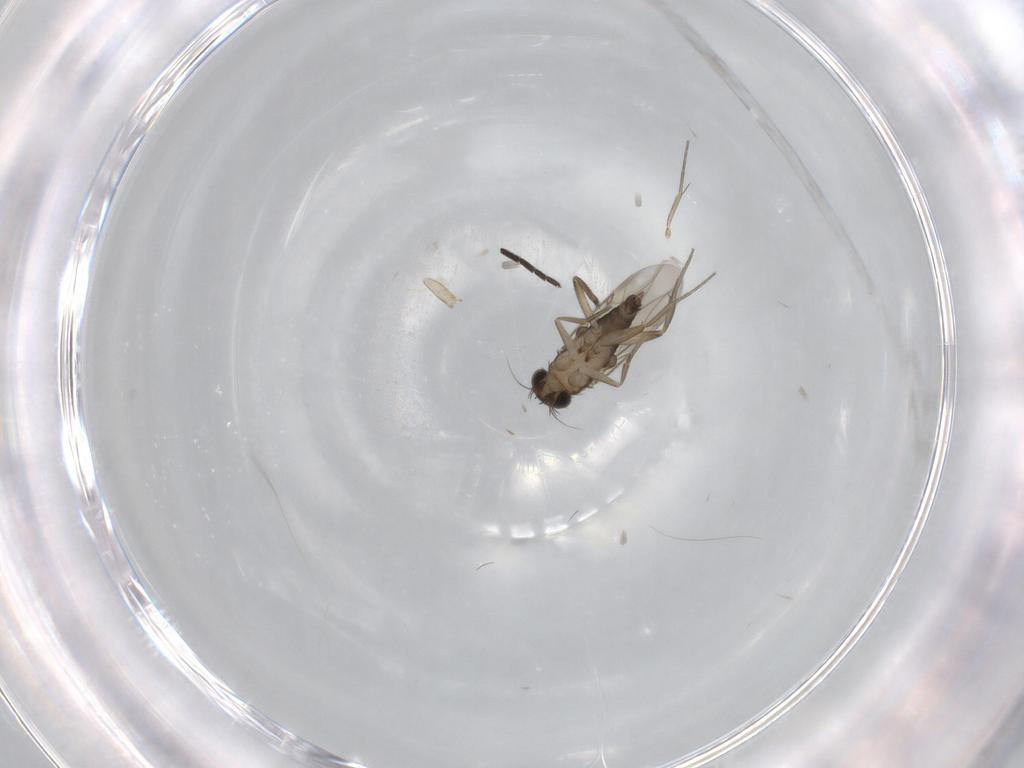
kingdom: Animalia
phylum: Arthropoda
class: Insecta
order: Diptera
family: Phoridae
